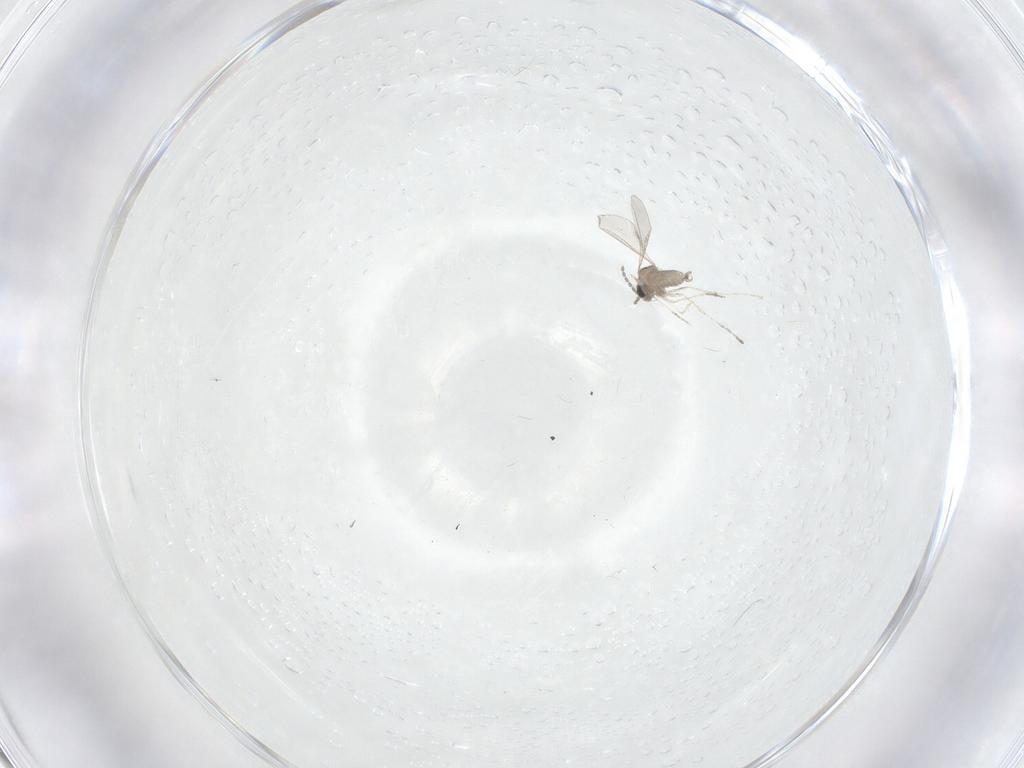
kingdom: Animalia
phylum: Arthropoda
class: Insecta
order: Diptera
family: Cecidomyiidae
